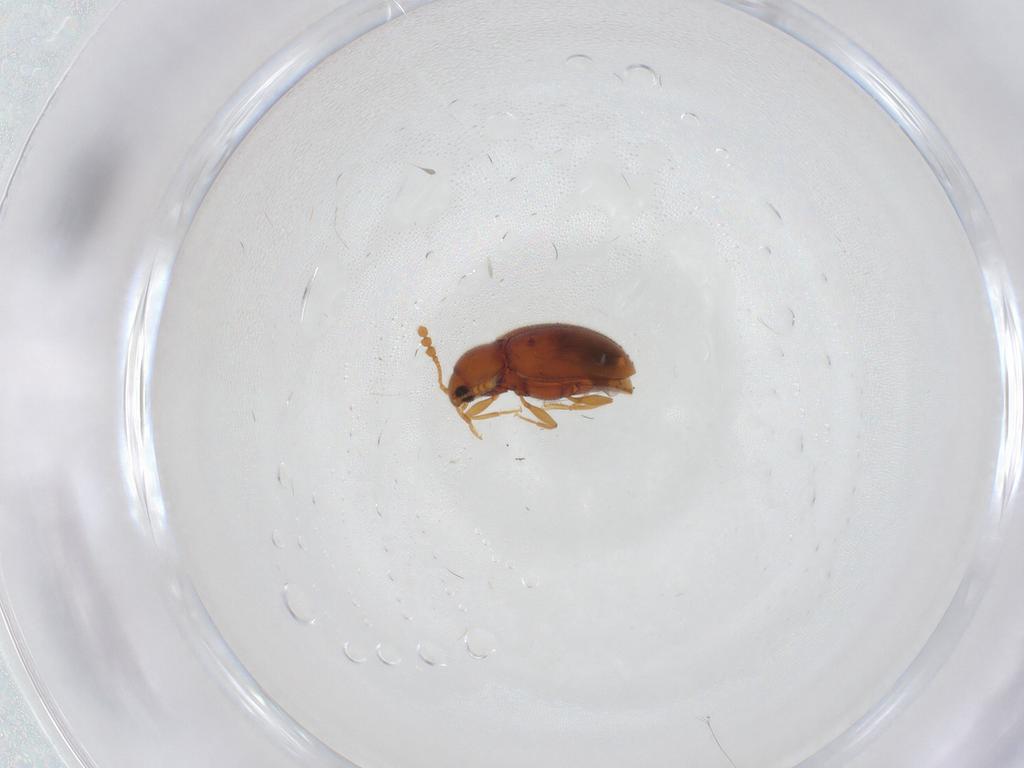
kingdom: Animalia
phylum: Arthropoda
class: Insecta
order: Coleoptera
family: Erotylidae
